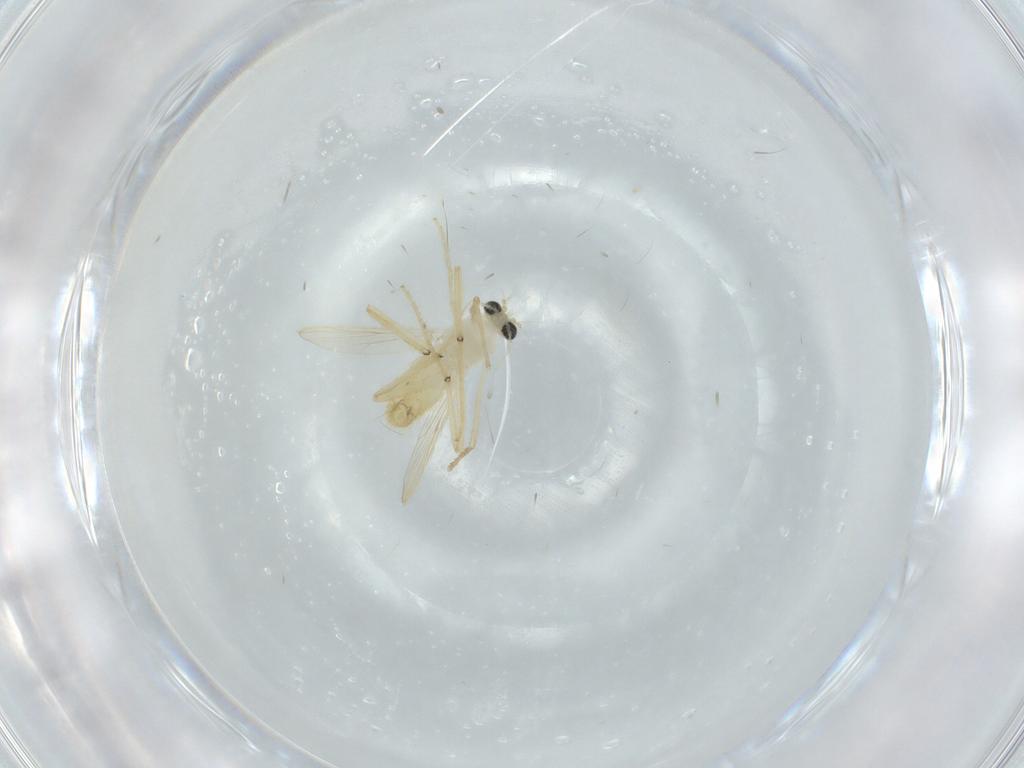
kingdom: Animalia
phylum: Arthropoda
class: Insecta
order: Diptera
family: Chironomidae
